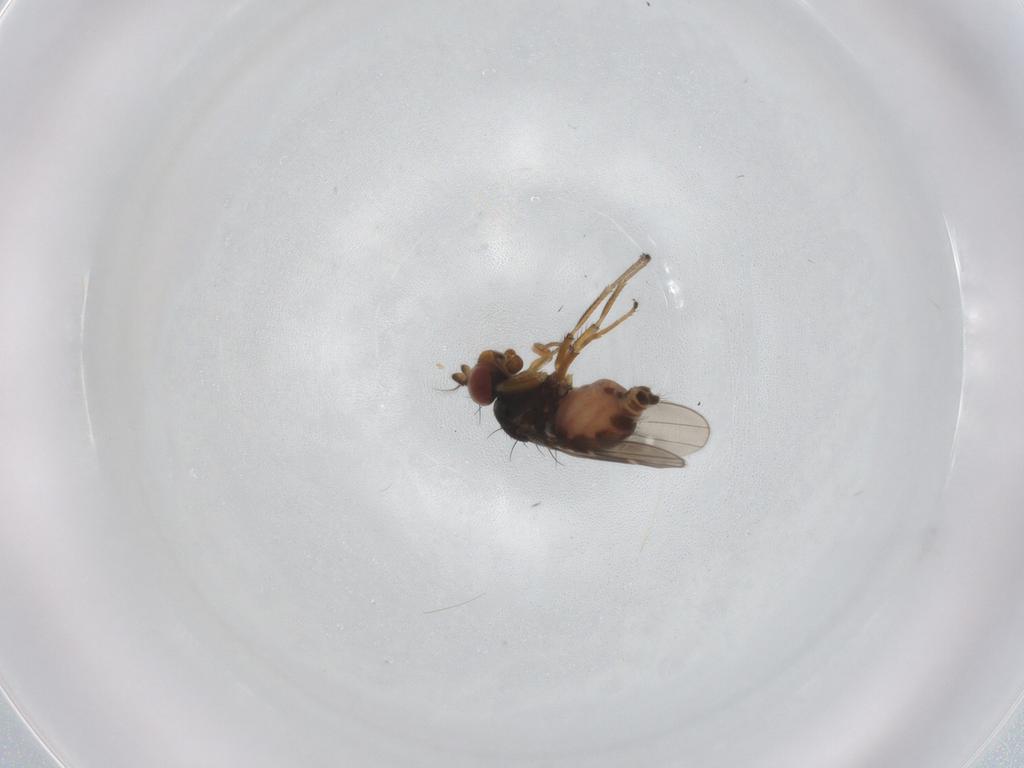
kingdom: Animalia
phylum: Arthropoda
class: Insecta
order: Diptera
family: Ephydridae
